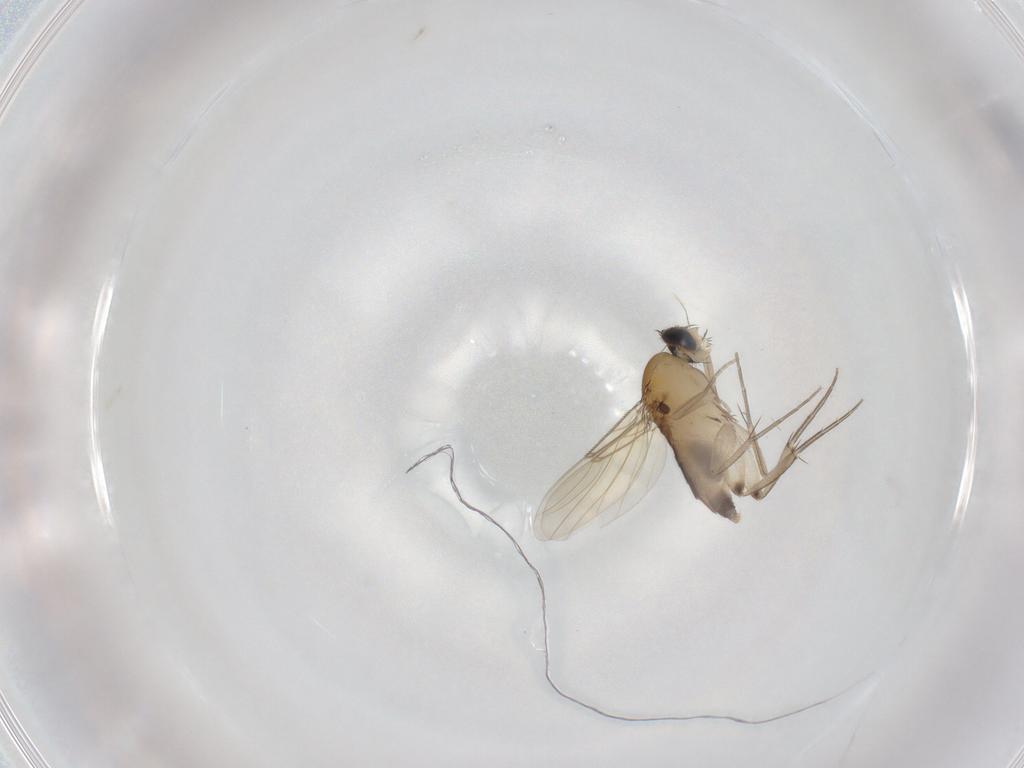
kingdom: Animalia
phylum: Arthropoda
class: Insecta
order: Diptera
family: Phoridae
